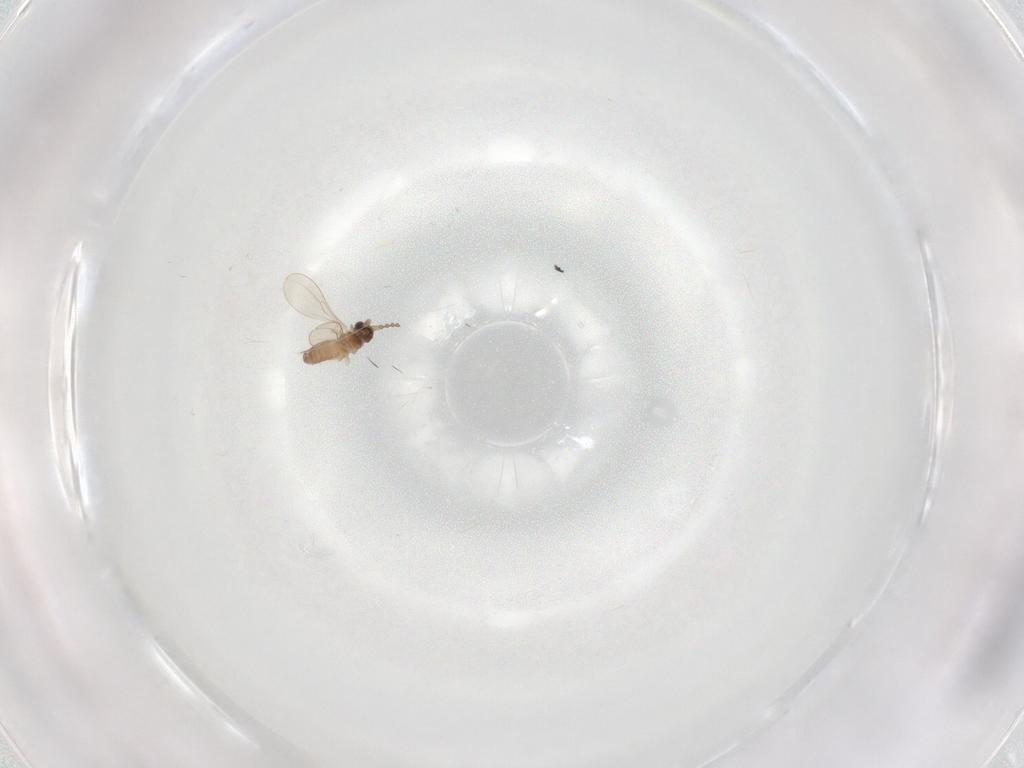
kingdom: Animalia
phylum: Arthropoda
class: Insecta
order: Diptera
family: Cecidomyiidae
